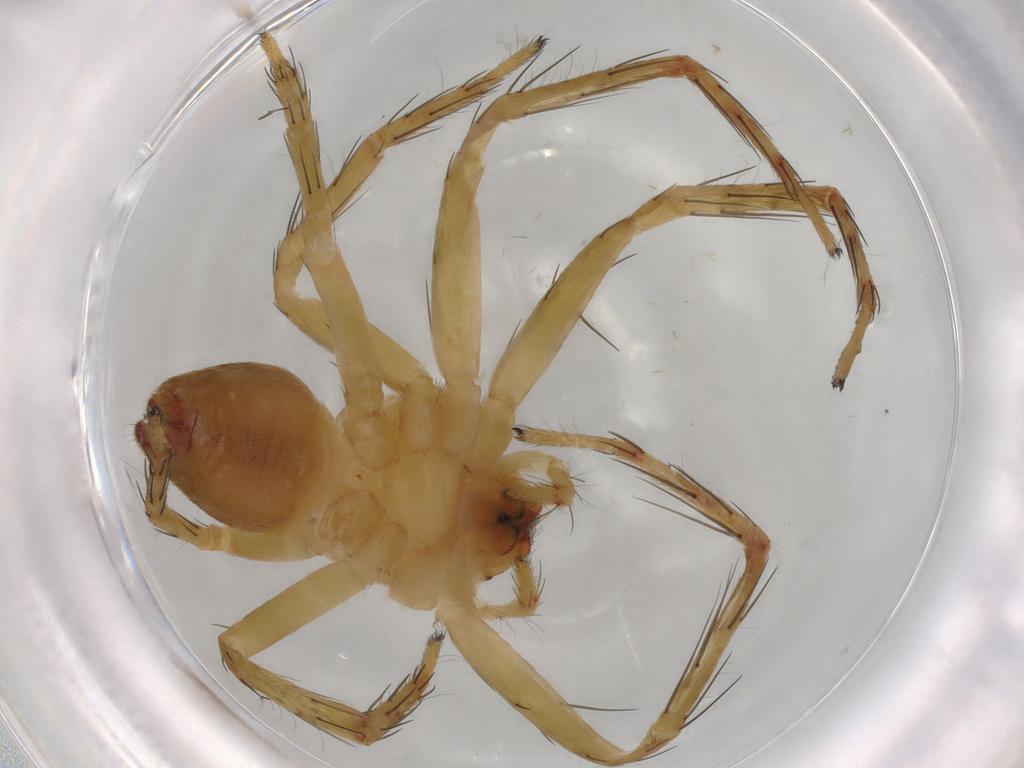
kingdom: Animalia
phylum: Arthropoda
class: Arachnida
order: Araneae
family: Oxyopidae
